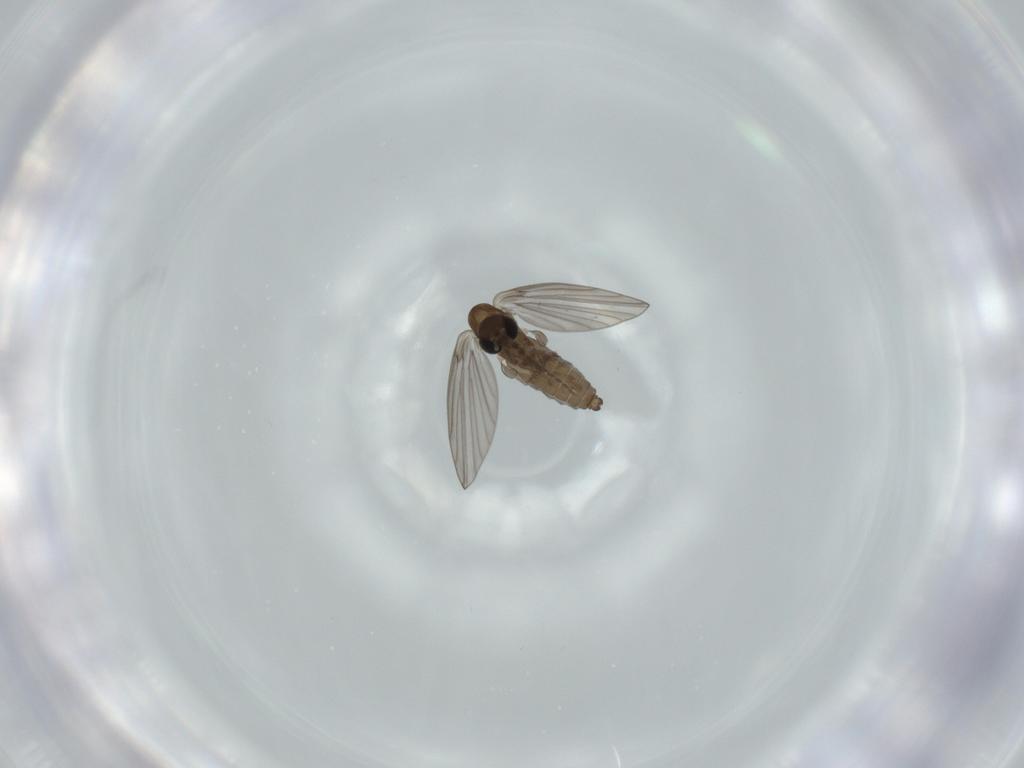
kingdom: Animalia
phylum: Arthropoda
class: Insecta
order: Diptera
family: Psychodidae
